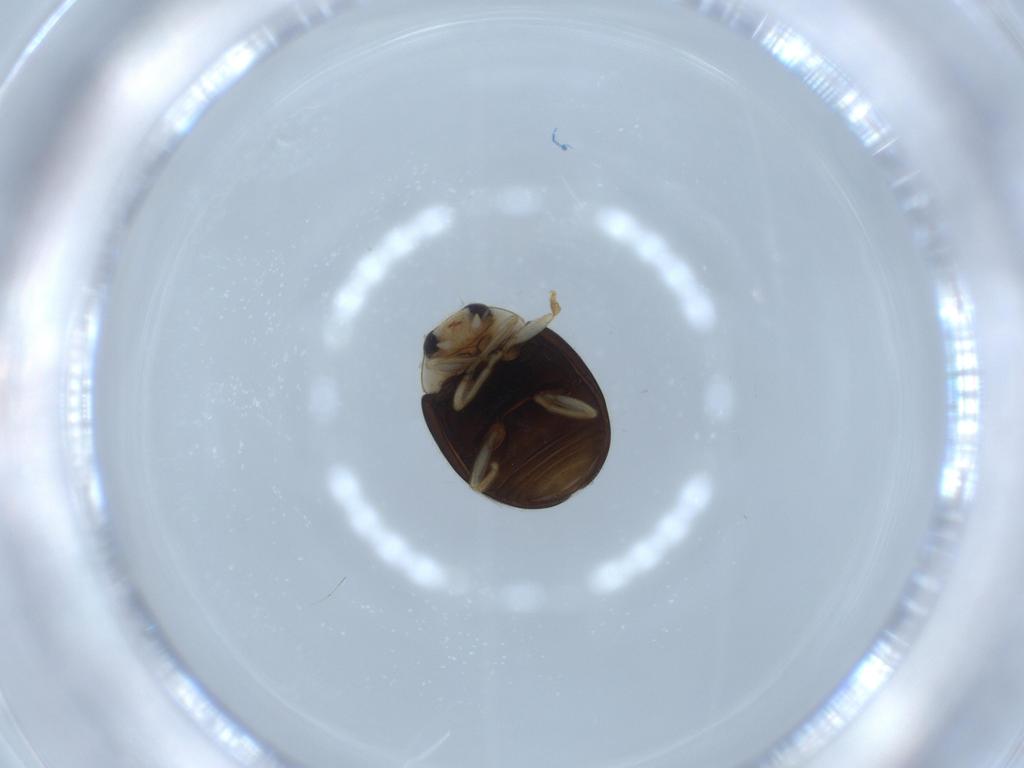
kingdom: Animalia
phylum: Arthropoda
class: Insecta
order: Coleoptera
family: Coccinellidae
